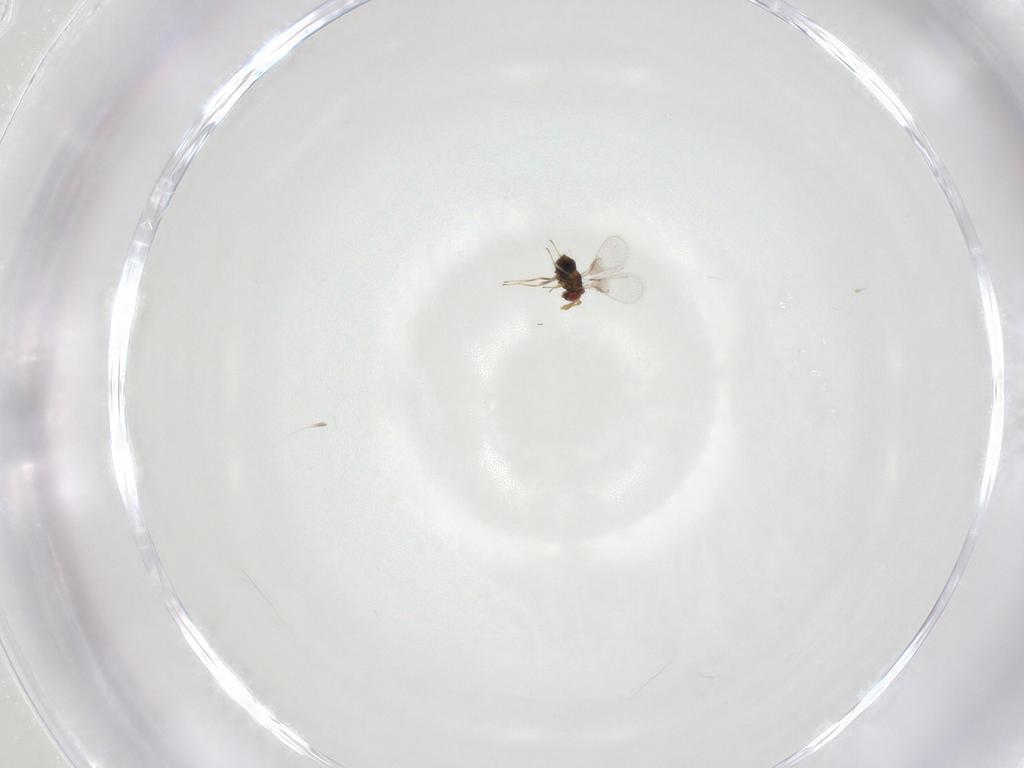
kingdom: Animalia
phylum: Arthropoda
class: Insecta
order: Hymenoptera
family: Trichogrammatidae
